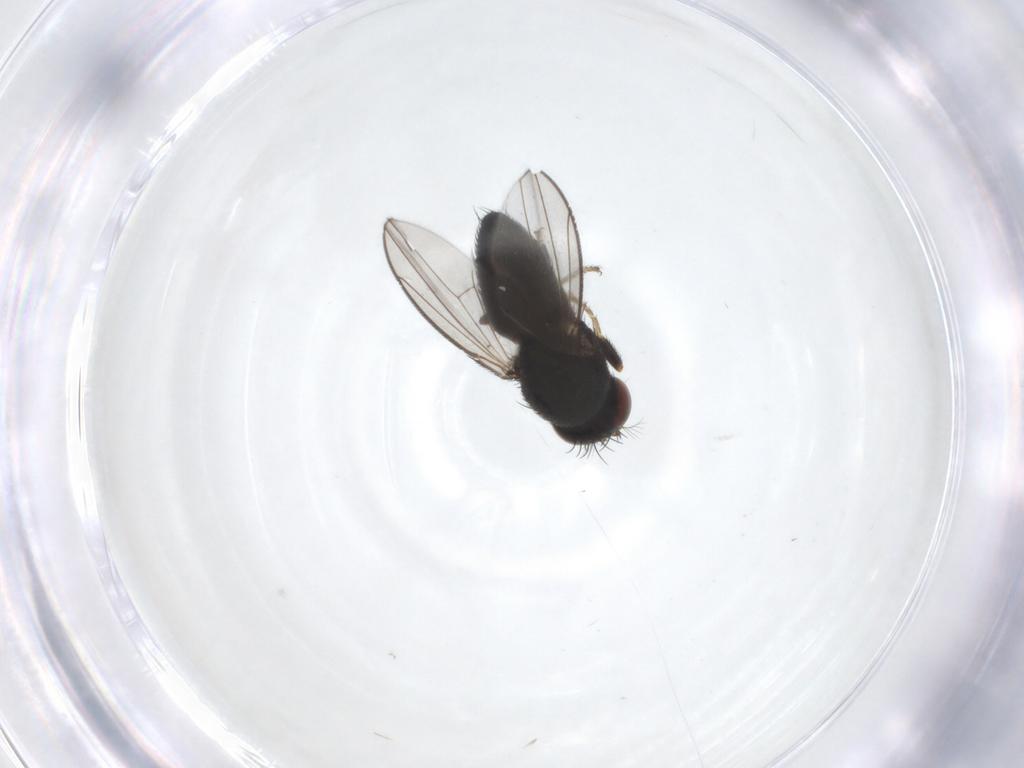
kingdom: Animalia
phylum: Arthropoda
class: Insecta
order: Diptera
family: Ephydridae
